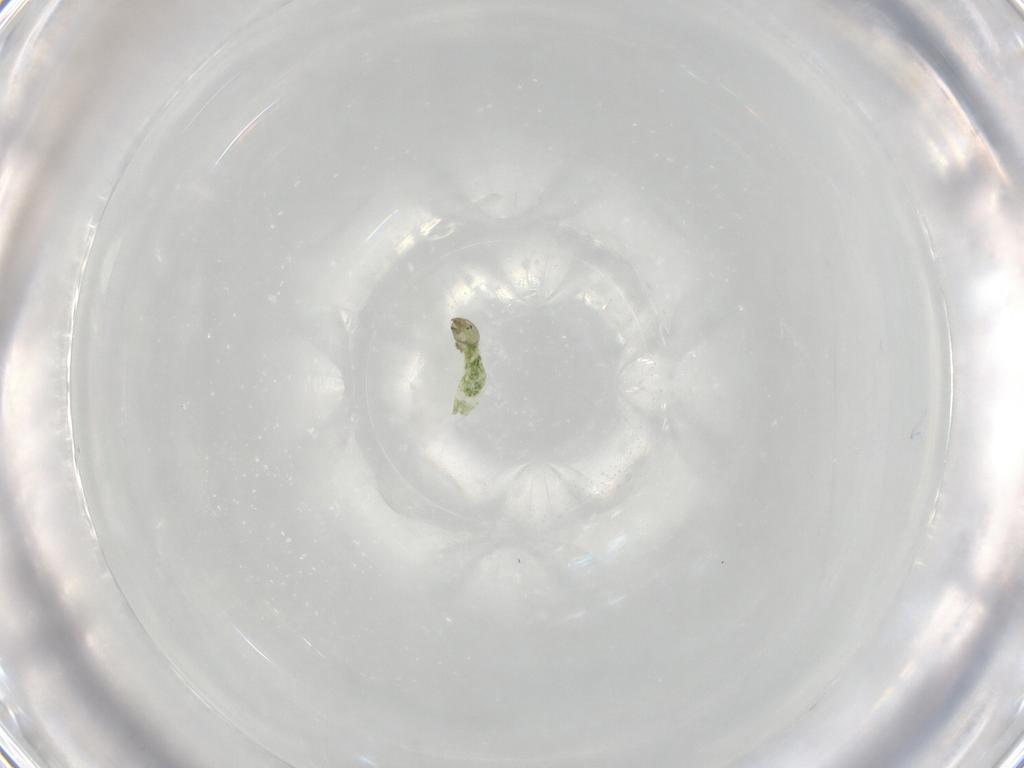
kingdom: Animalia
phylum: Arthropoda
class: Insecta
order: Diptera
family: Chironomidae
